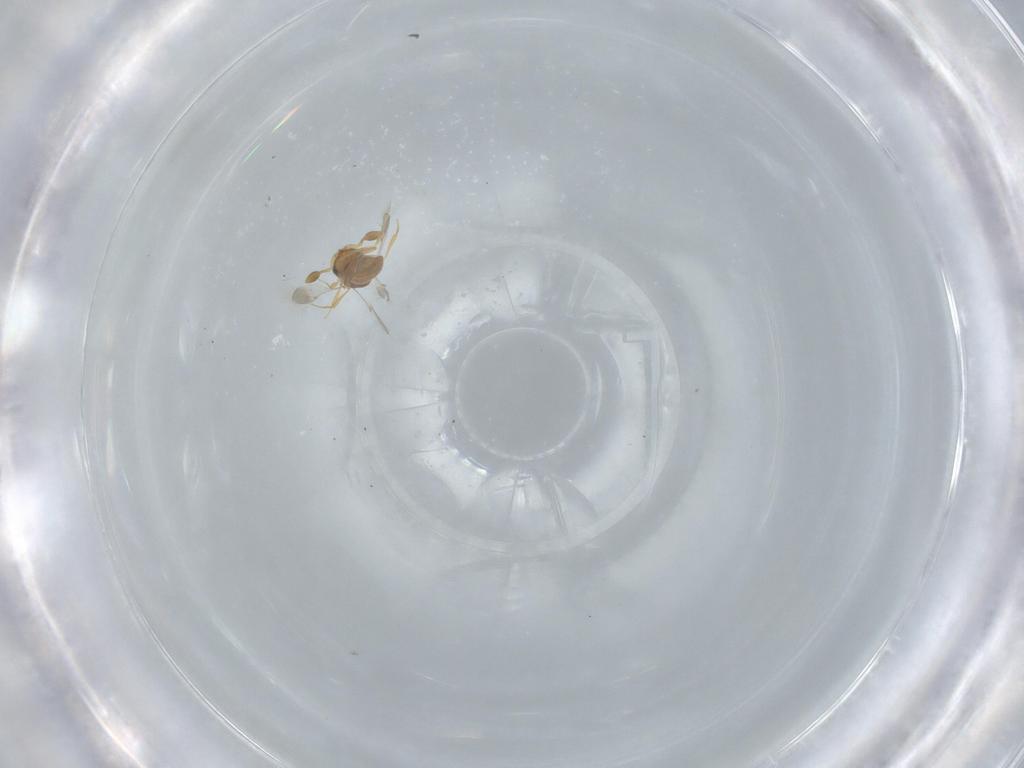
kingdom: Animalia
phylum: Arthropoda
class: Insecta
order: Hymenoptera
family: Scelionidae
